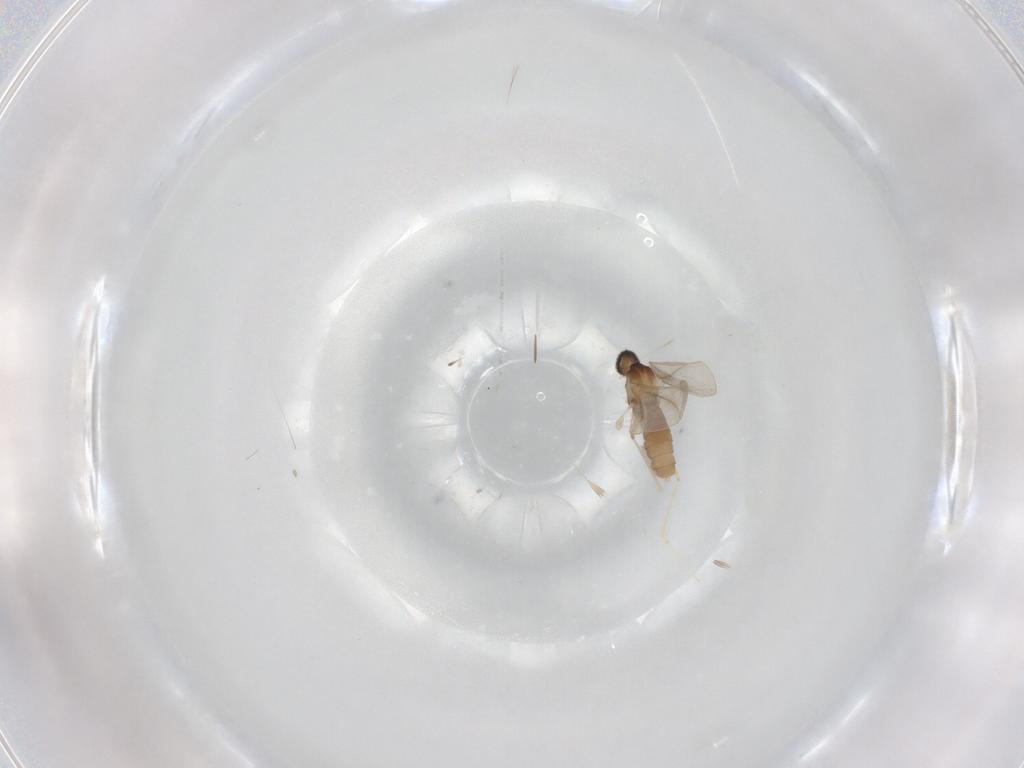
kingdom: Animalia
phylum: Arthropoda
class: Insecta
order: Diptera
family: Cecidomyiidae
